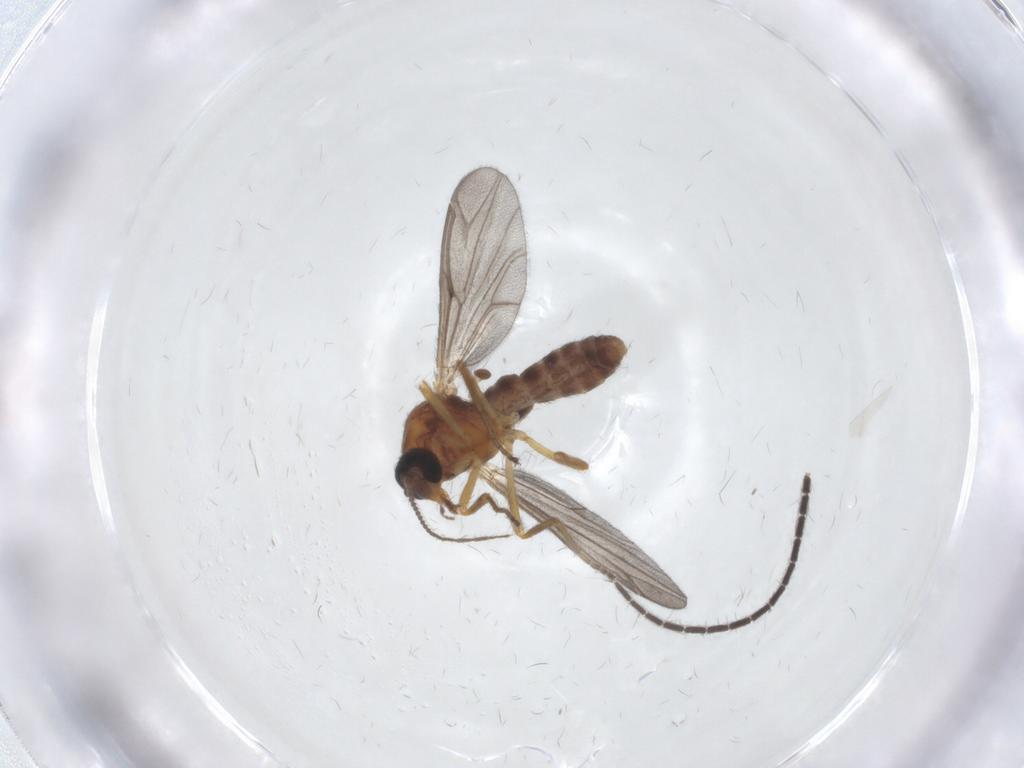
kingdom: Animalia
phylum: Arthropoda
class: Insecta
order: Diptera
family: Ceratopogonidae
